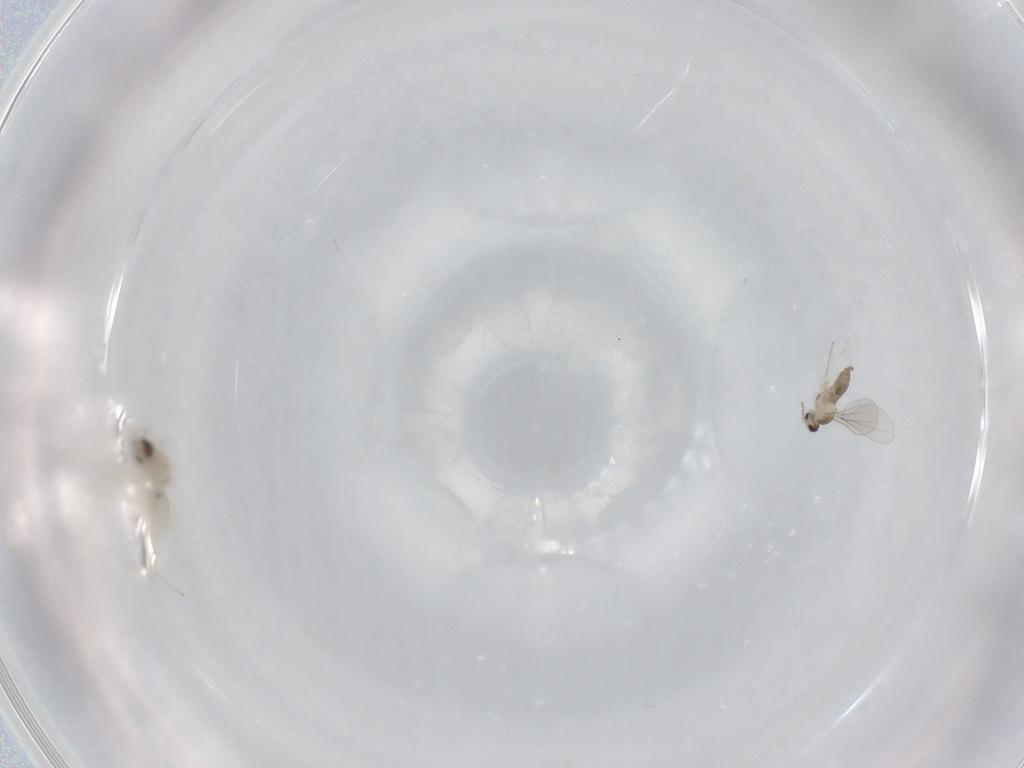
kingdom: Animalia
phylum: Arthropoda
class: Insecta
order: Diptera
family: Cecidomyiidae
